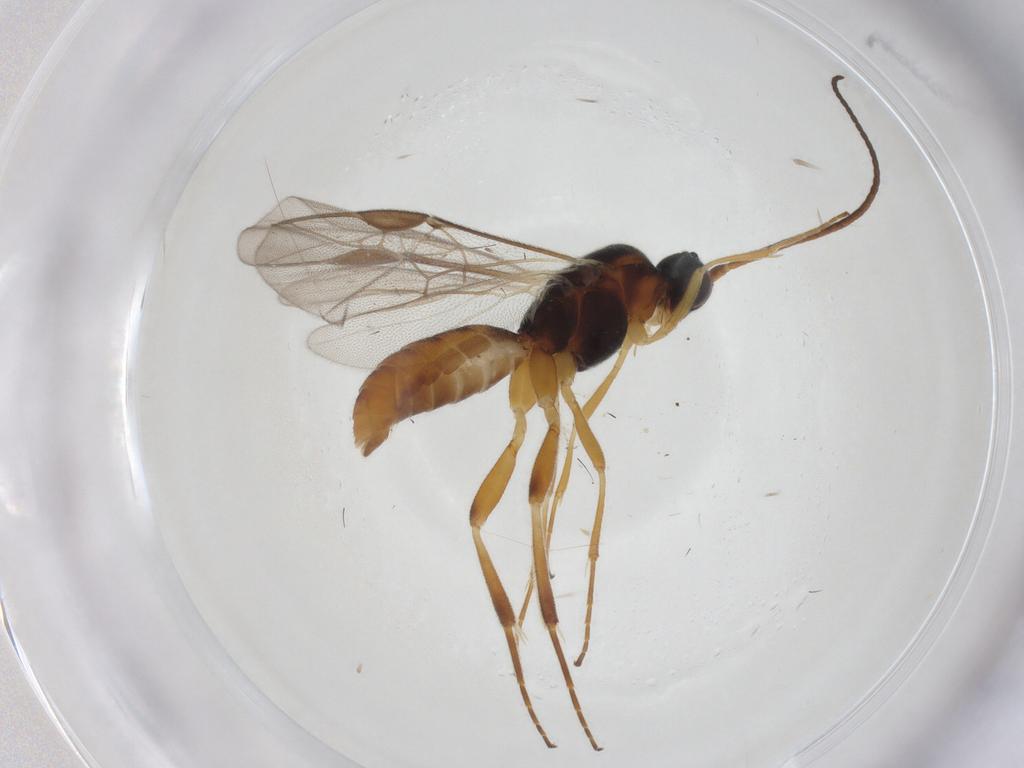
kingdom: Animalia
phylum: Arthropoda
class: Insecta
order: Hymenoptera
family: Braconidae
